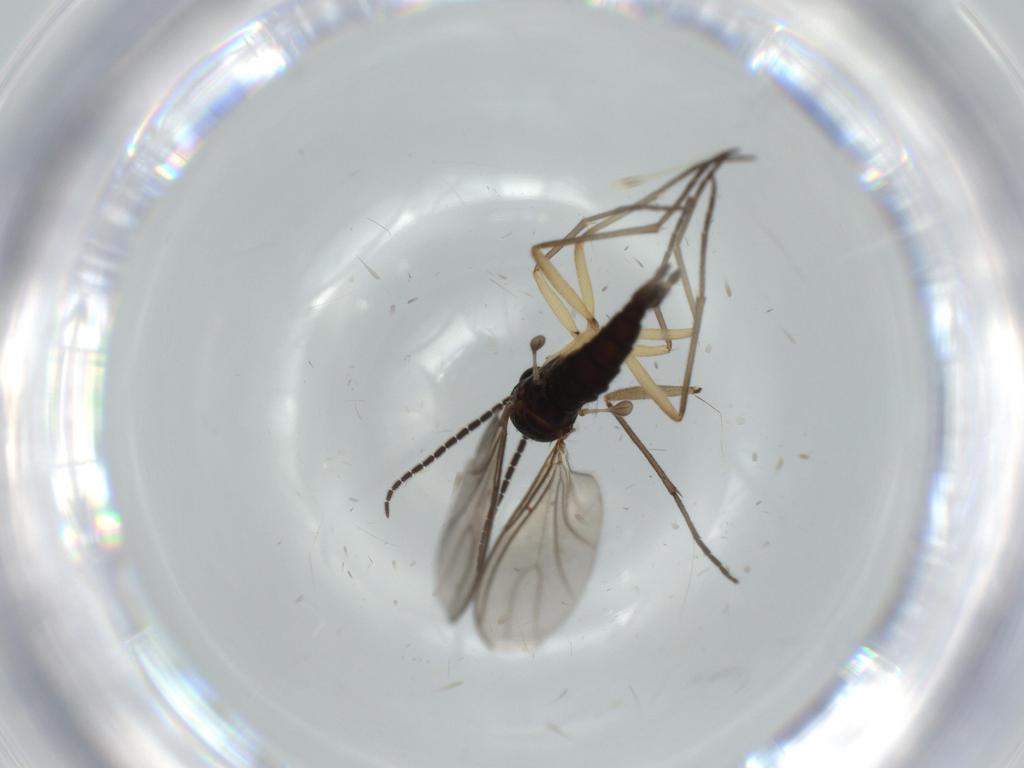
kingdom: Animalia
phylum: Arthropoda
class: Insecta
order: Diptera
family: Sciaridae
